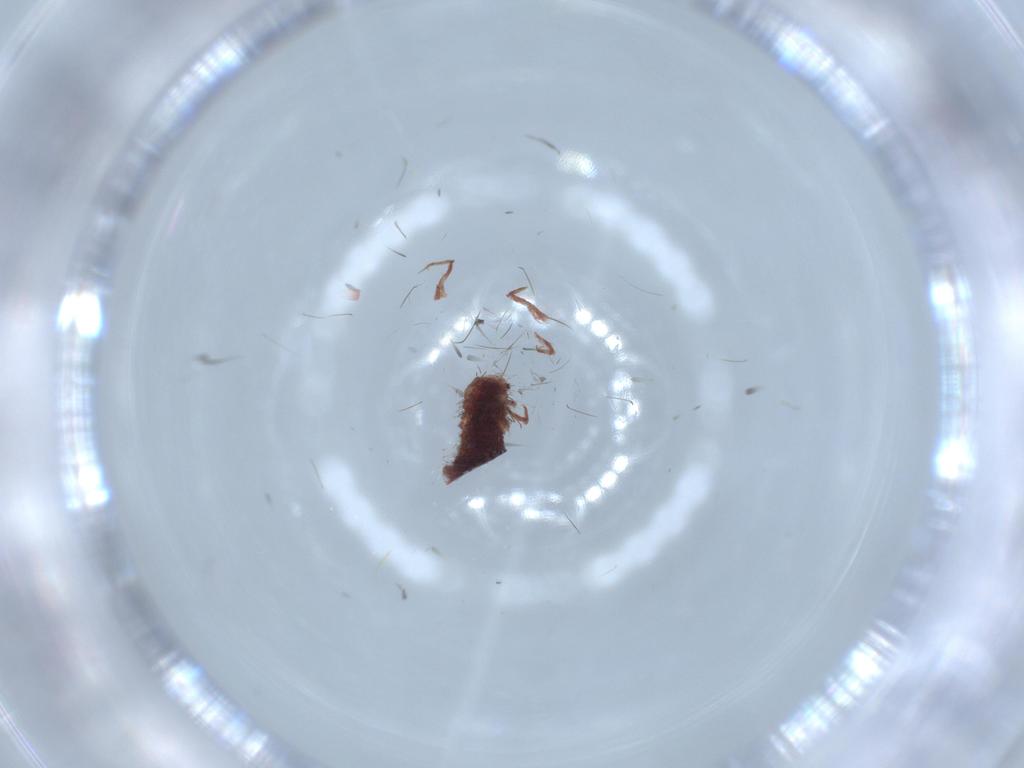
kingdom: Animalia
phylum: Arthropoda
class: Insecta
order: Coleoptera
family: Coccinellidae
